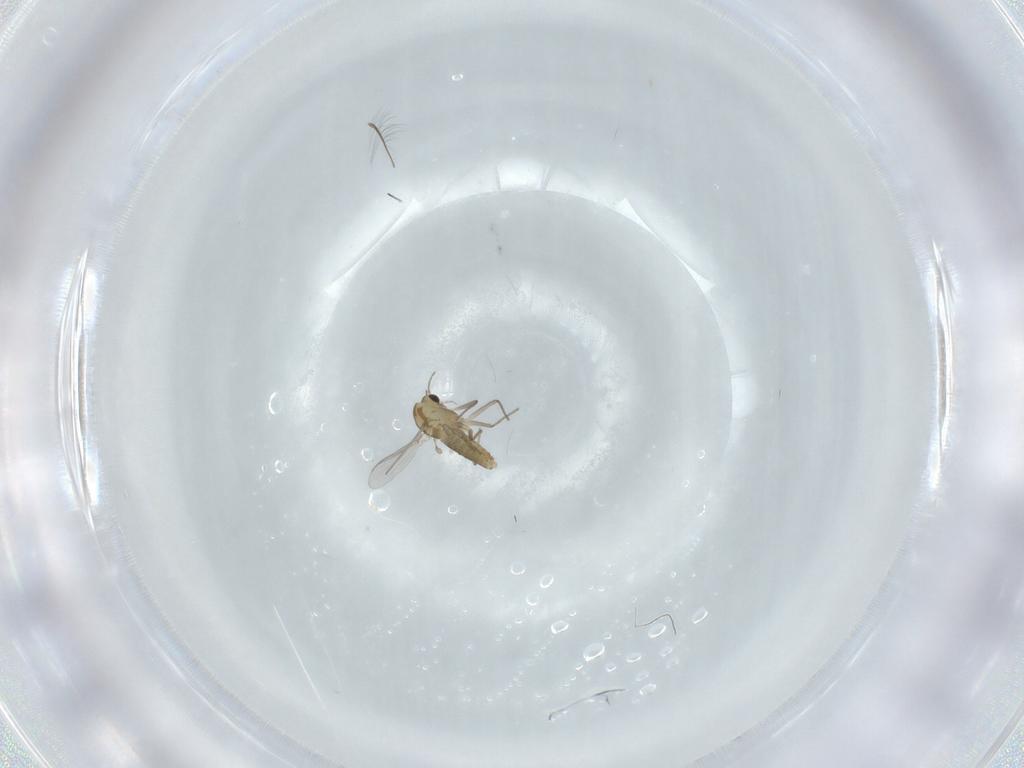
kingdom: Animalia
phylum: Arthropoda
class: Insecta
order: Diptera
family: Chironomidae
